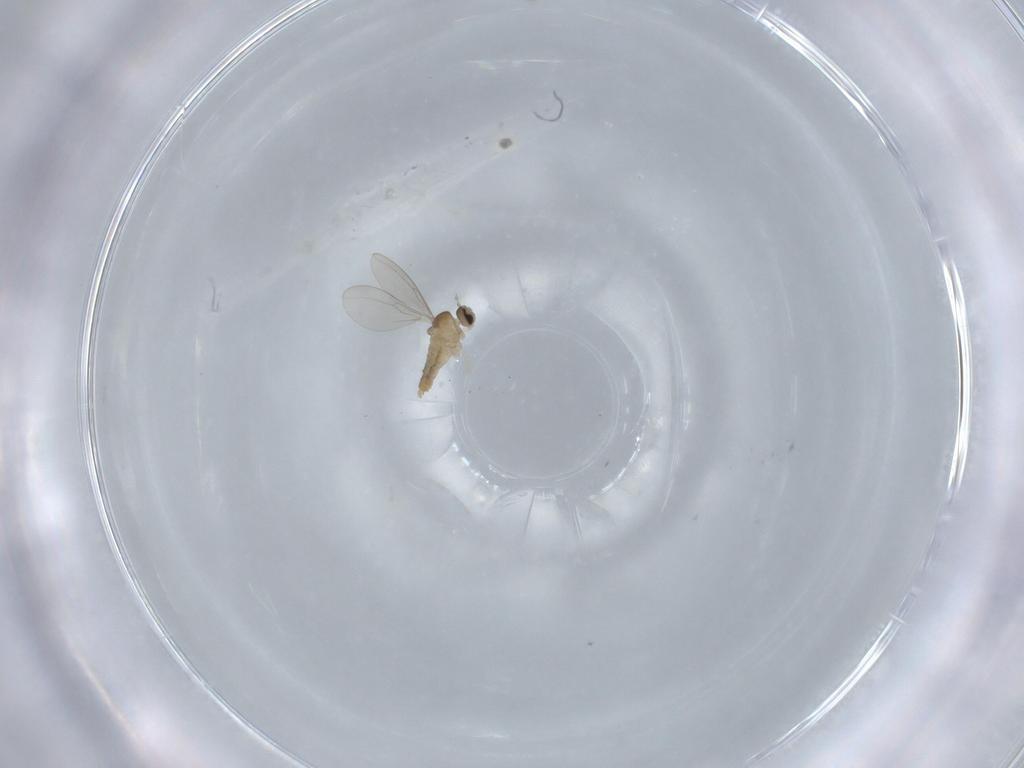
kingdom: Animalia
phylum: Arthropoda
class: Insecta
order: Diptera
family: Cecidomyiidae
